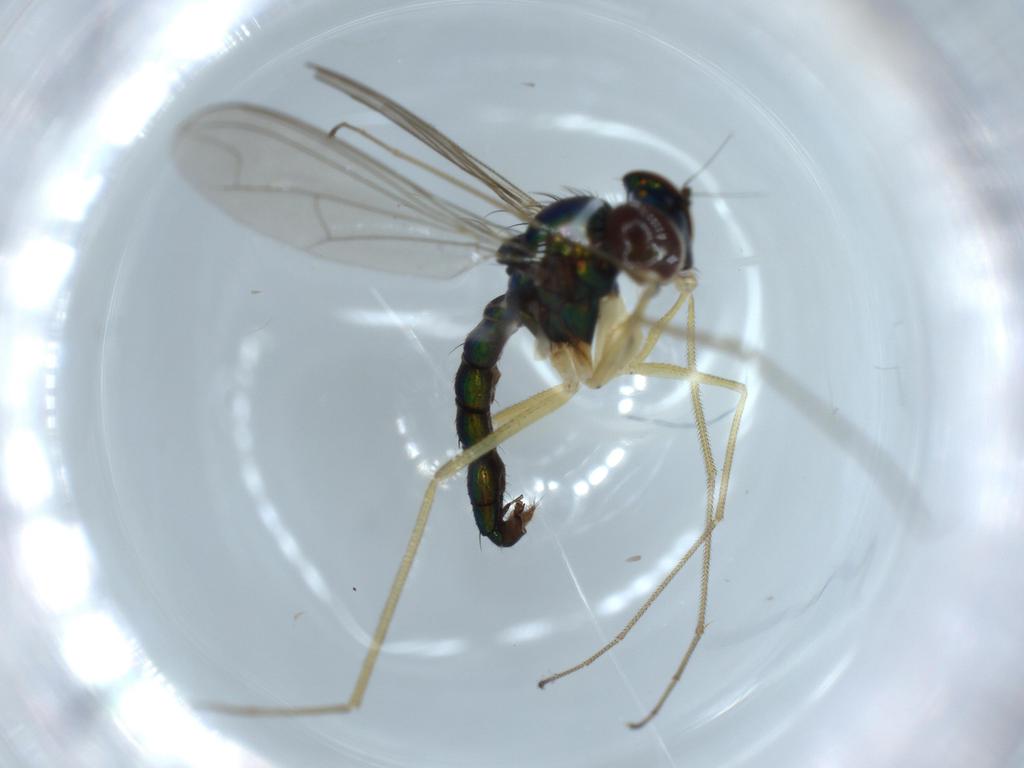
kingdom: Animalia
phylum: Arthropoda
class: Insecta
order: Diptera
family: Dolichopodidae
